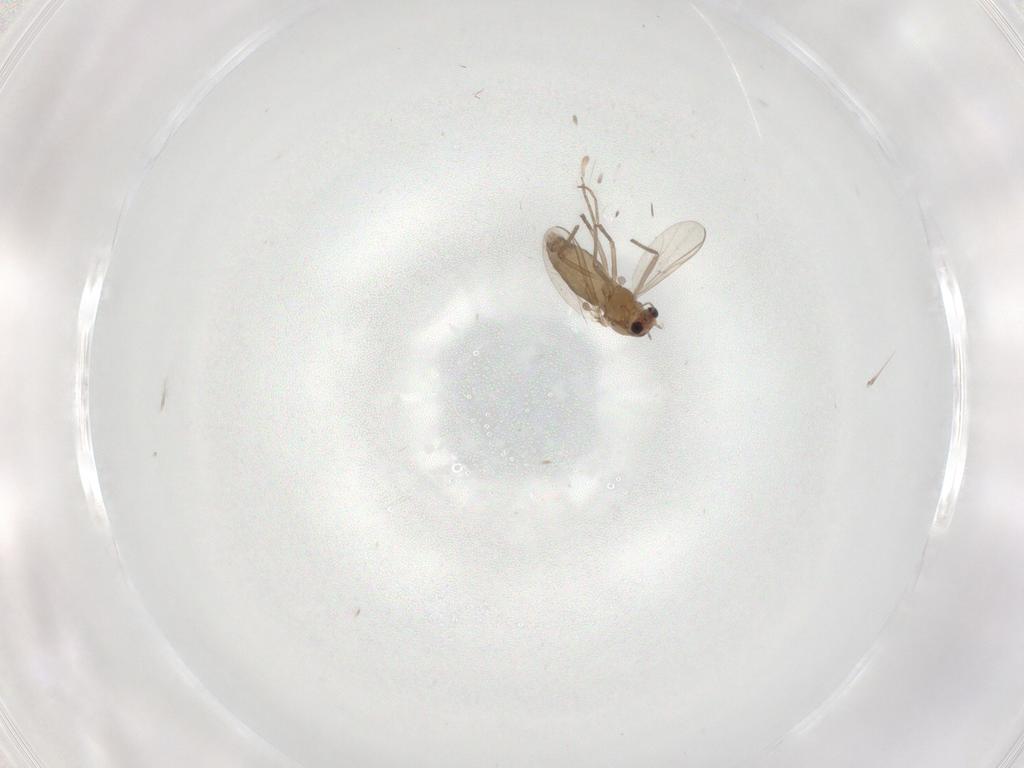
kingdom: Animalia
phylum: Arthropoda
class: Insecta
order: Diptera
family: Chironomidae
